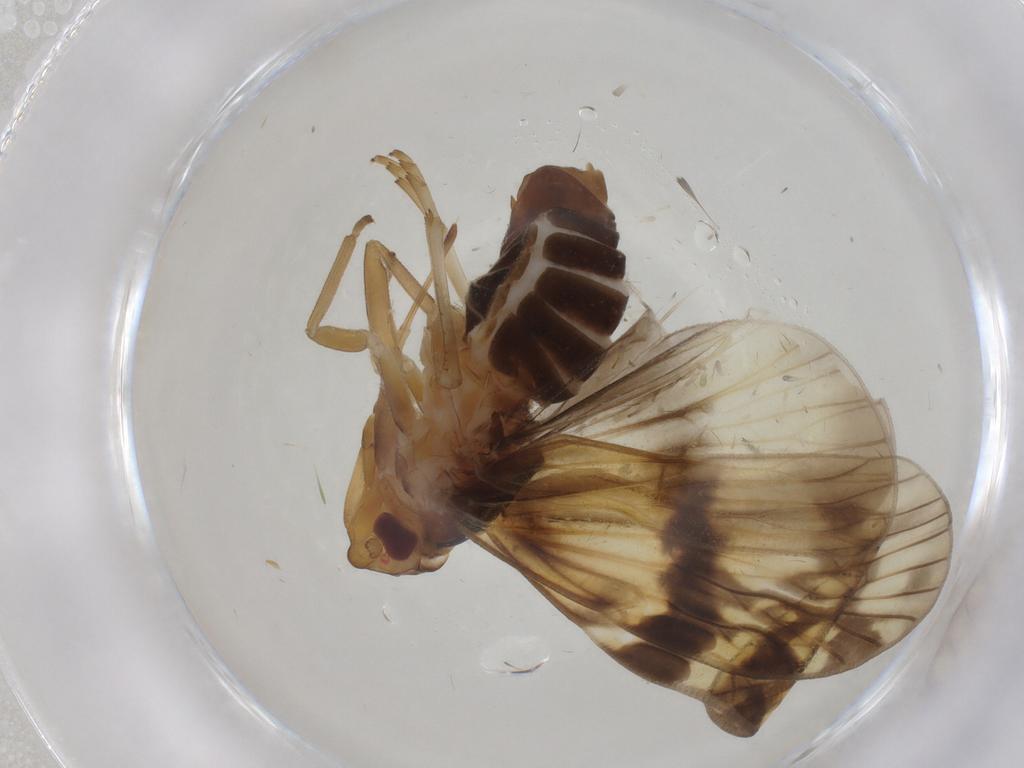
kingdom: Animalia
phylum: Arthropoda
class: Insecta
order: Hemiptera
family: Cixiidae
